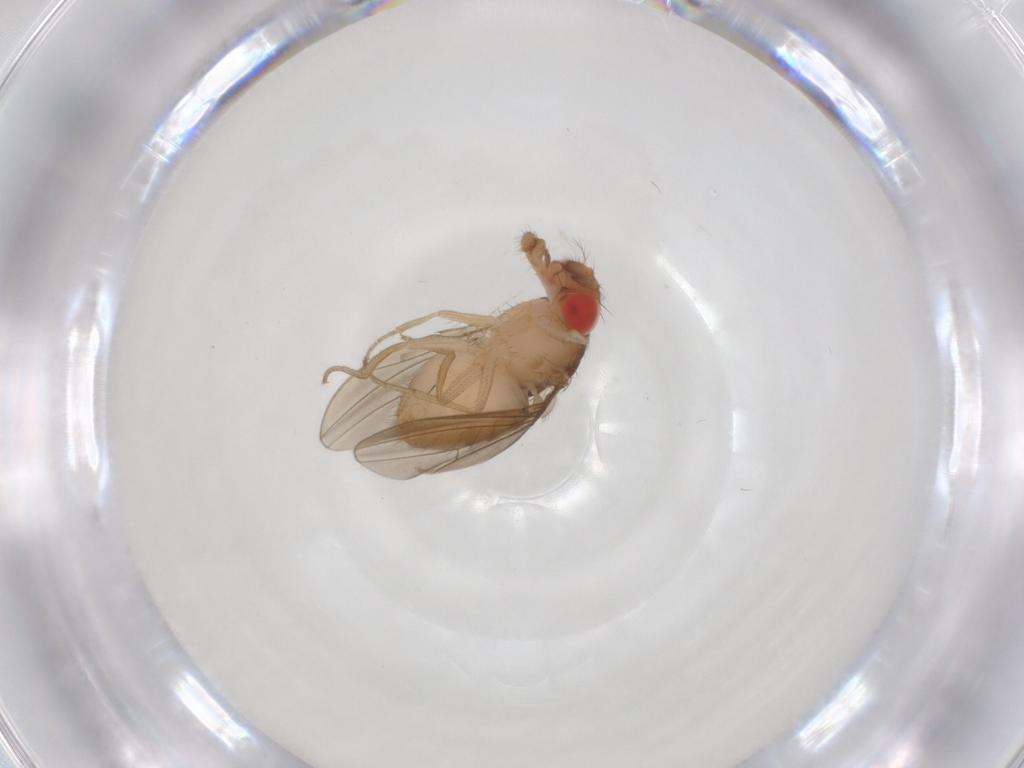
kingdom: Animalia
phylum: Arthropoda
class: Insecta
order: Diptera
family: Drosophilidae
